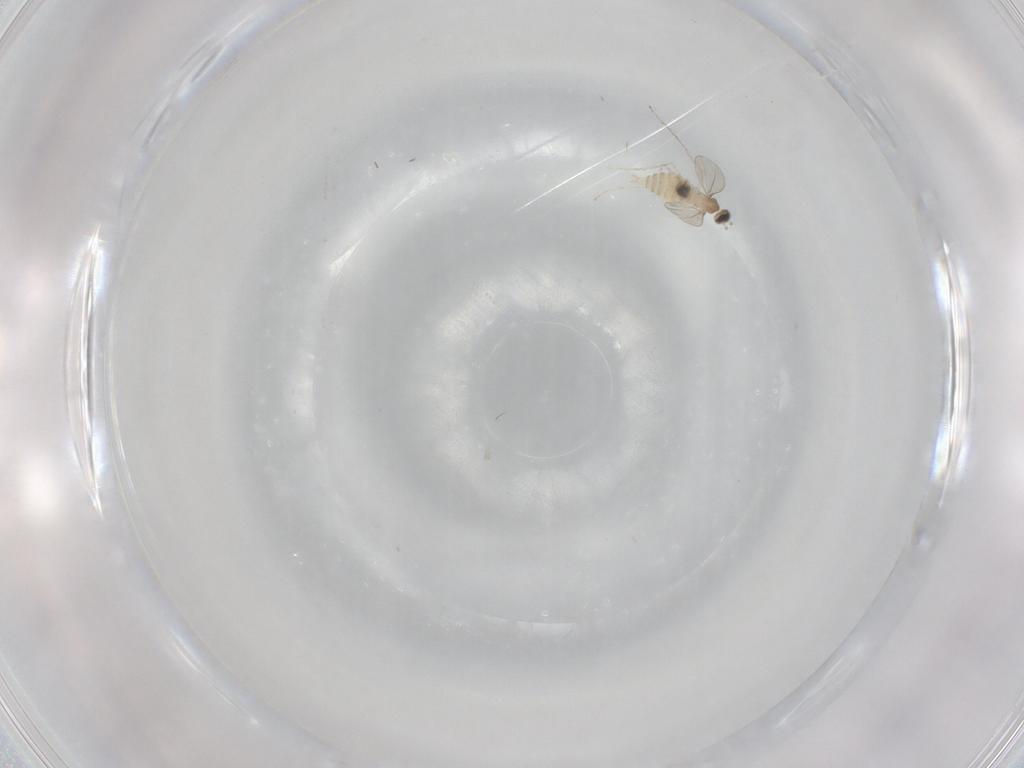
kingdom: Animalia
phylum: Arthropoda
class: Insecta
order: Diptera
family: Cecidomyiidae
